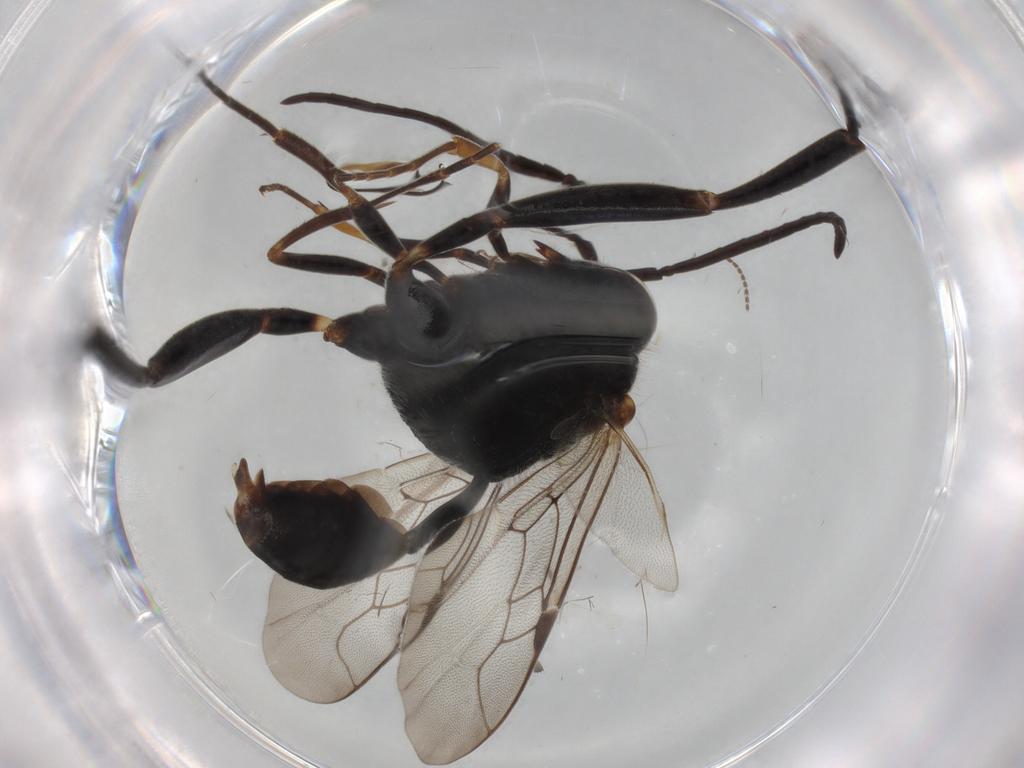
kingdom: Animalia
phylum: Arthropoda
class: Insecta
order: Hymenoptera
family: Evaniidae
